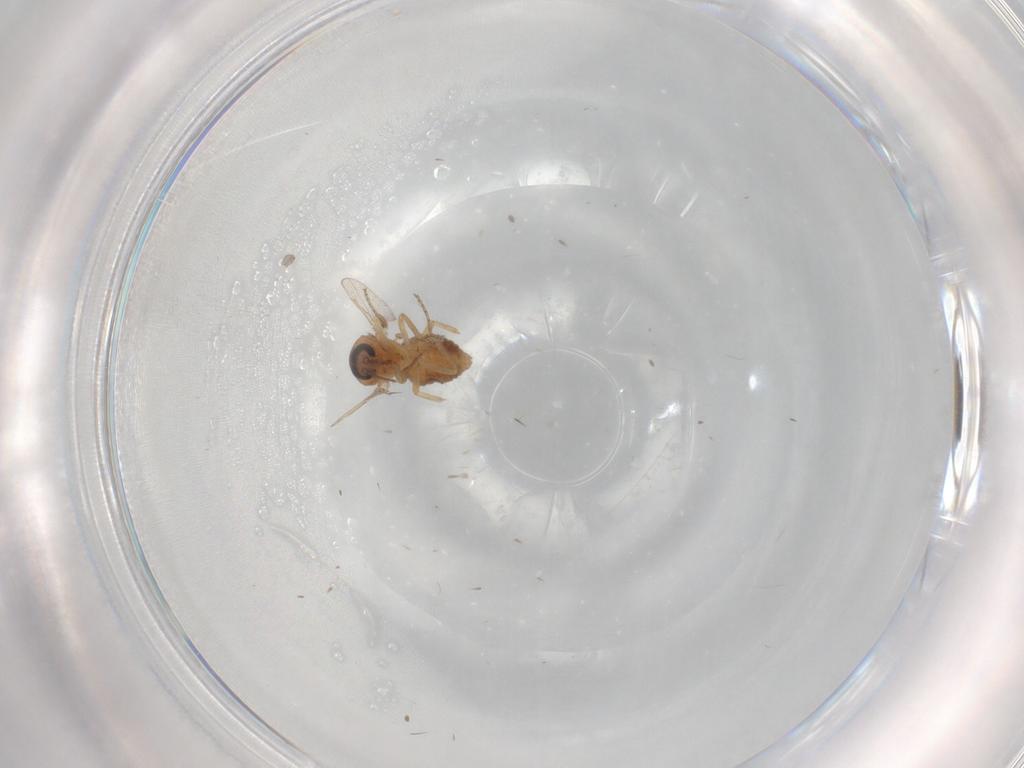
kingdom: Animalia
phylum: Arthropoda
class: Insecta
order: Diptera
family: Ceratopogonidae
